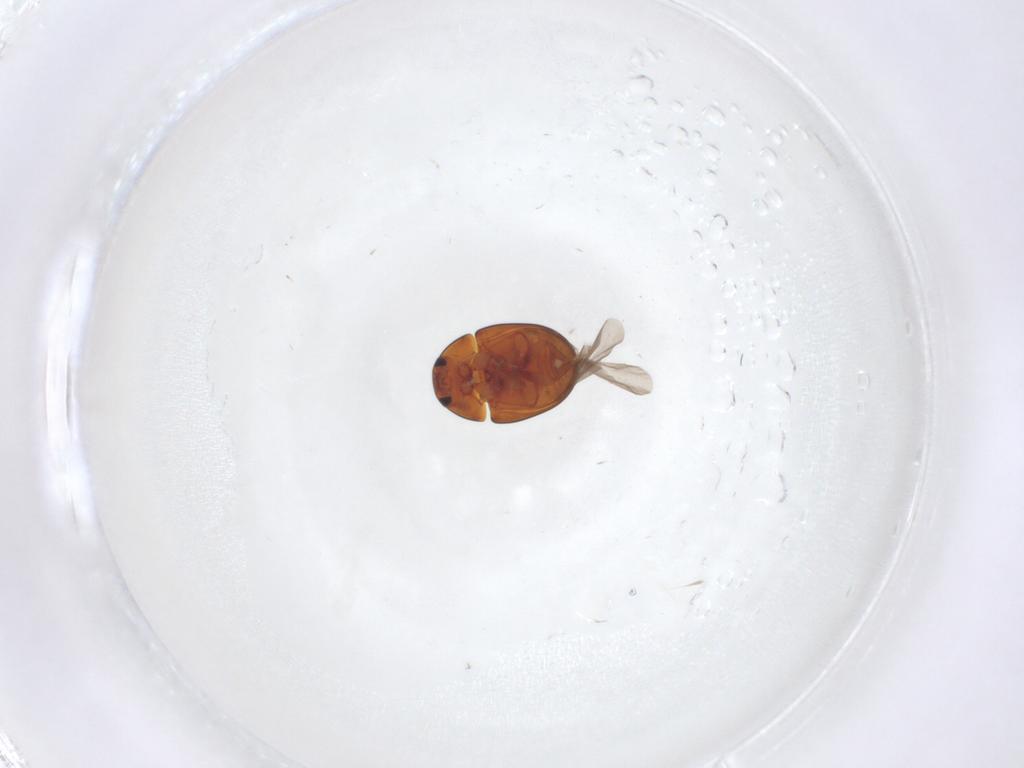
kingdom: Animalia
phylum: Arthropoda
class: Insecta
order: Coleoptera
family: Phalacridae
